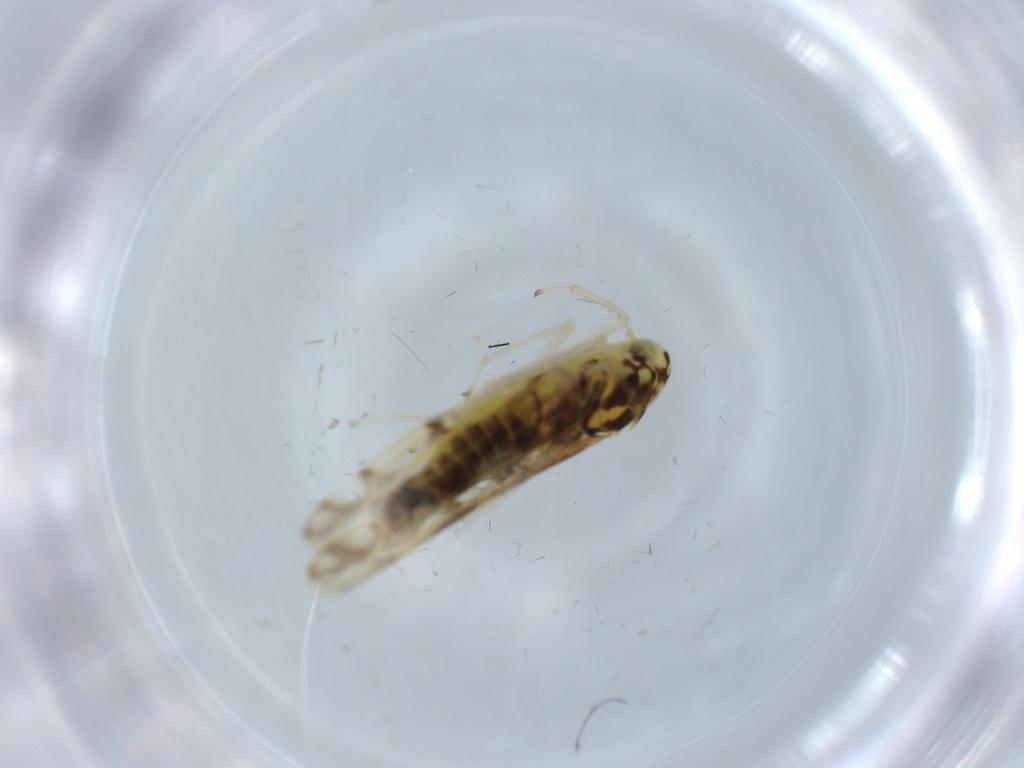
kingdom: Animalia
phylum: Arthropoda
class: Insecta
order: Hemiptera
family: Cicadellidae
